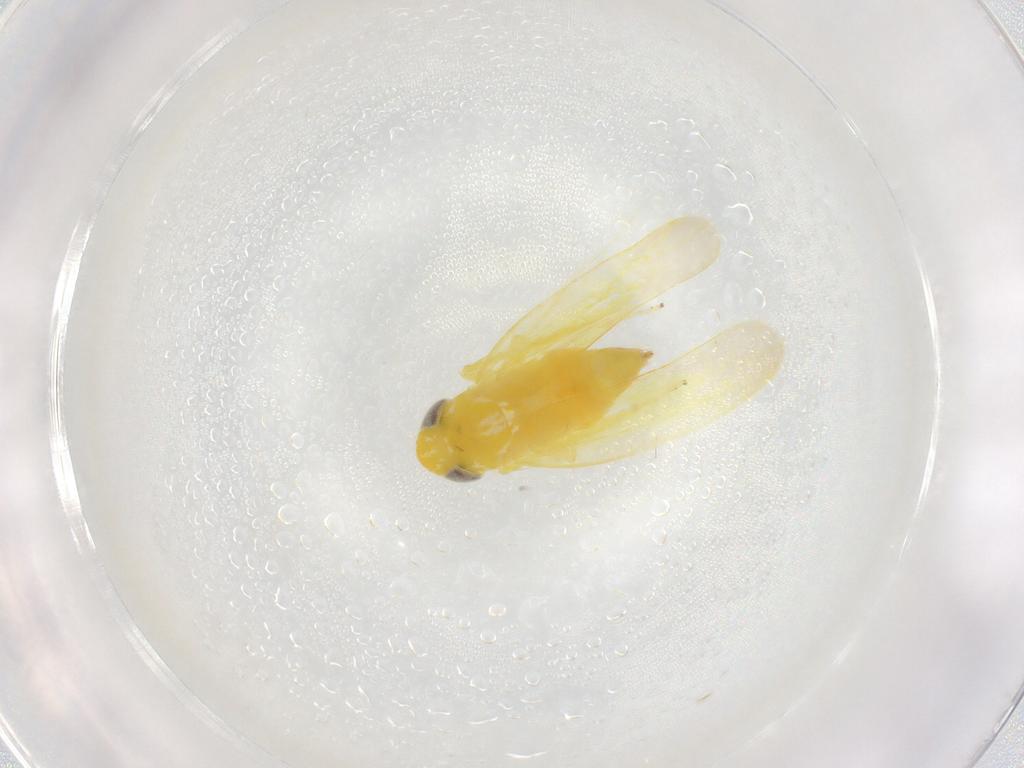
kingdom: Animalia
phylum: Arthropoda
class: Insecta
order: Hemiptera
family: Cicadellidae
